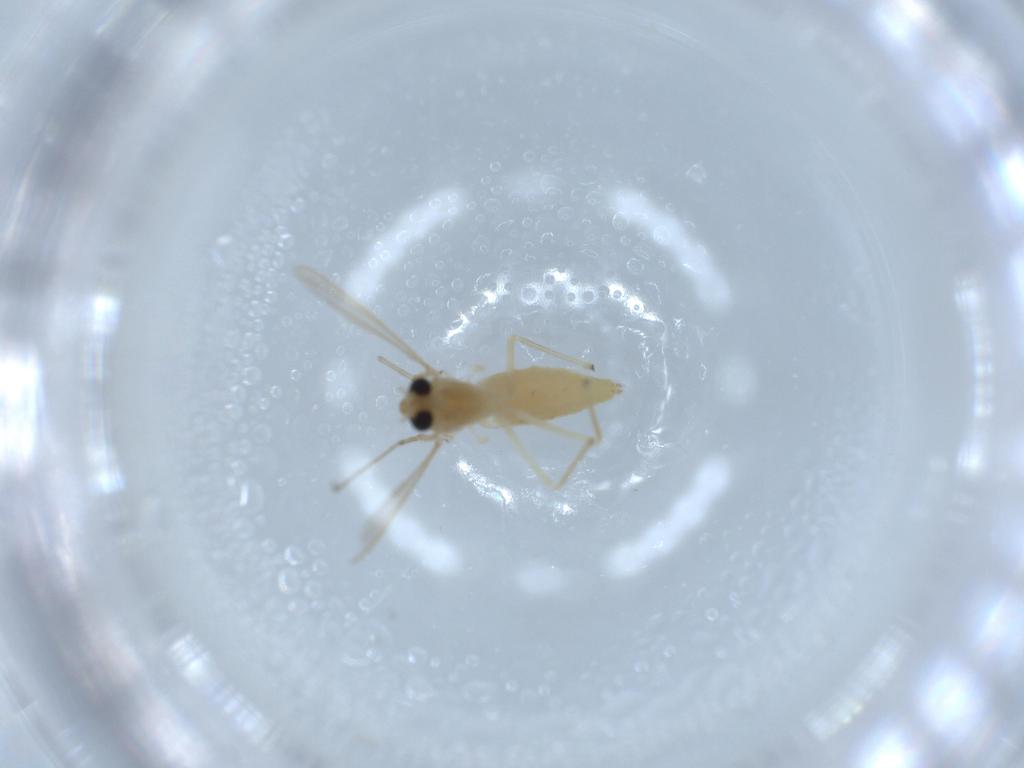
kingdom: Animalia
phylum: Arthropoda
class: Insecta
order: Diptera
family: Chironomidae
